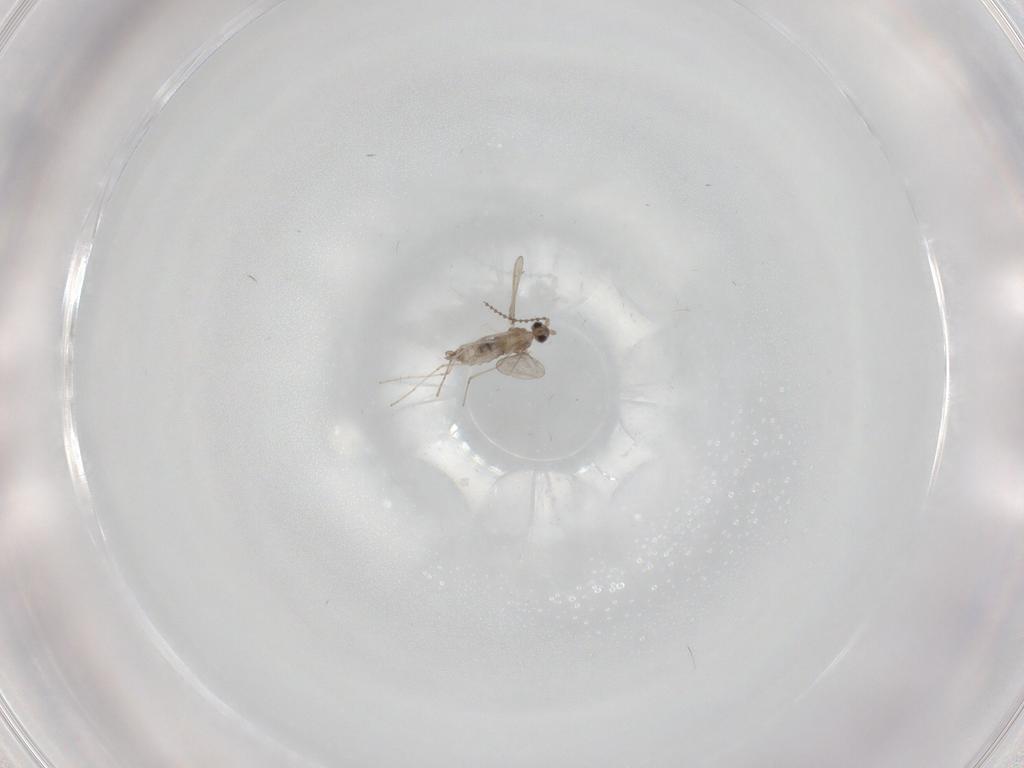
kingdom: Animalia
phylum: Arthropoda
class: Insecta
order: Diptera
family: Cecidomyiidae
